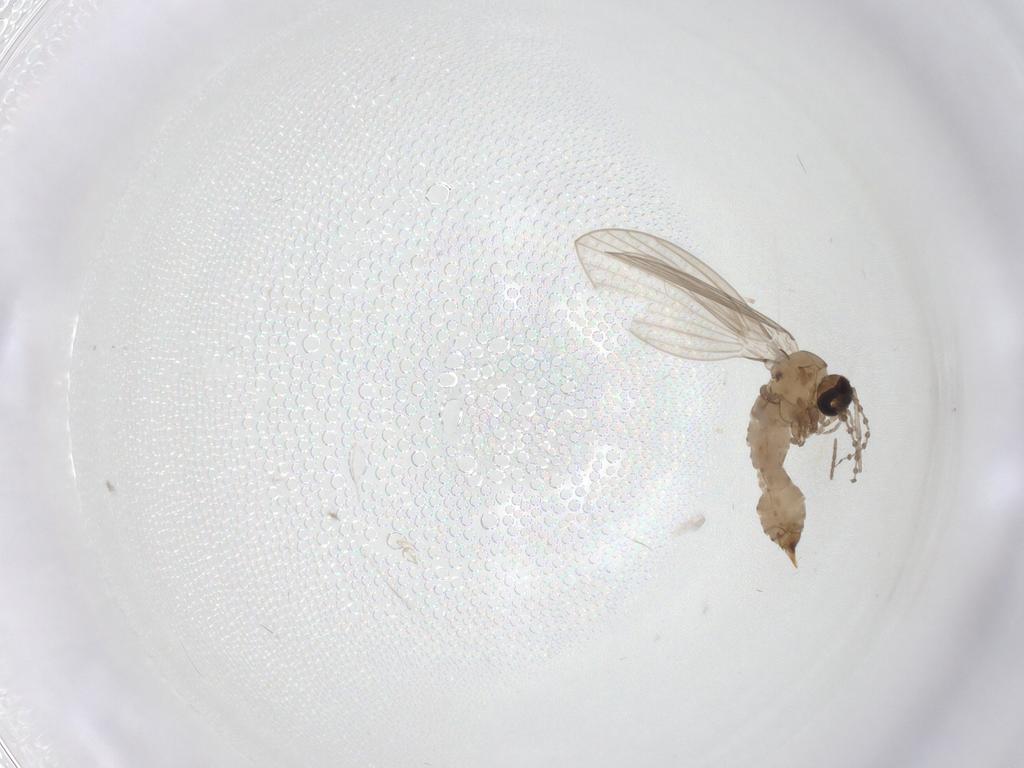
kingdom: Animalia
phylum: Arthropoda
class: Insecta
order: Diptera
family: Psychodidae
